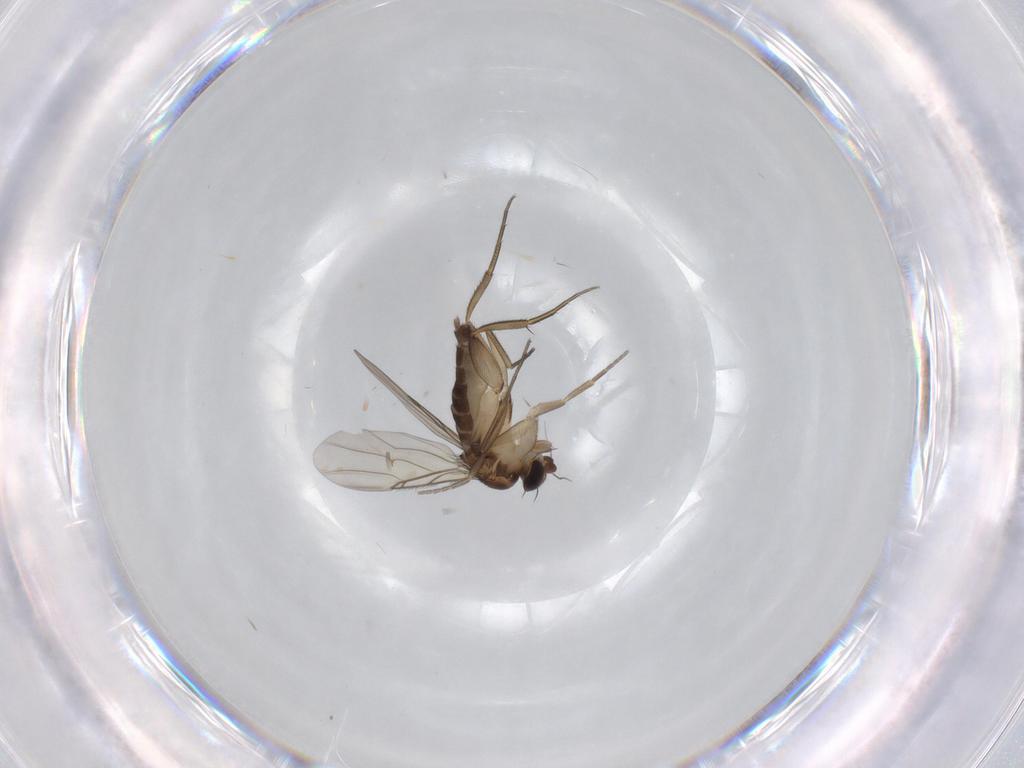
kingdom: Animalia
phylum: Arthropoda
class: Insecta
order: Diptera
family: Phoridae
